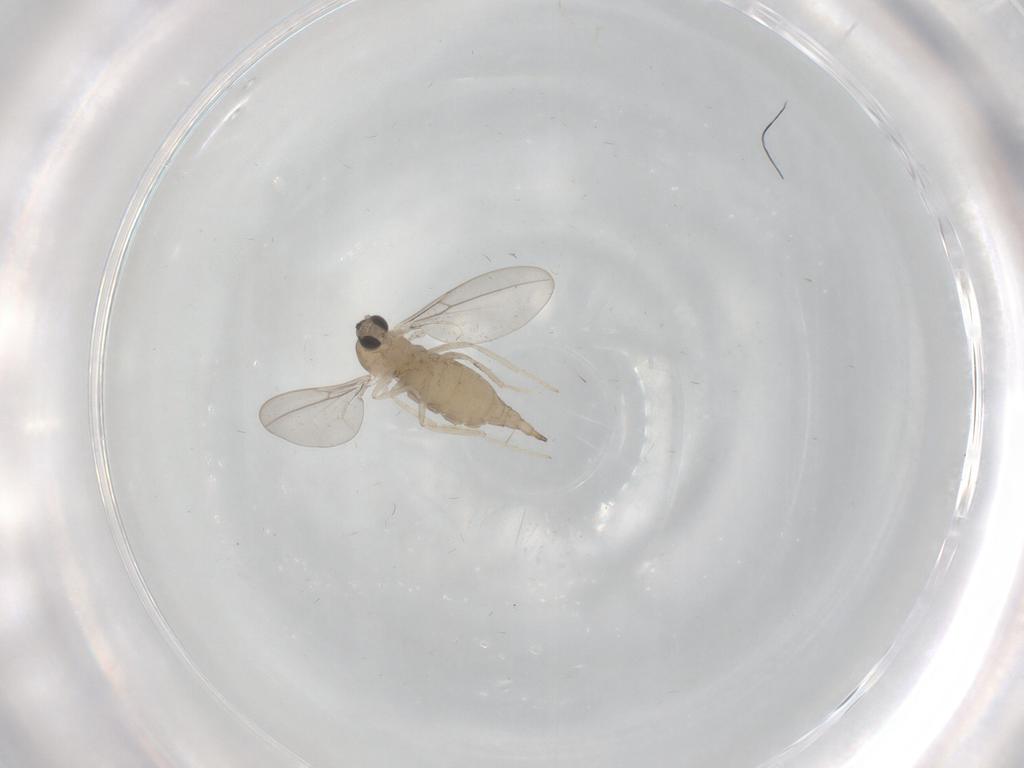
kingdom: Animalia
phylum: Arthropoda
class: Insecta
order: Diptera
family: Cecidomyiidae
